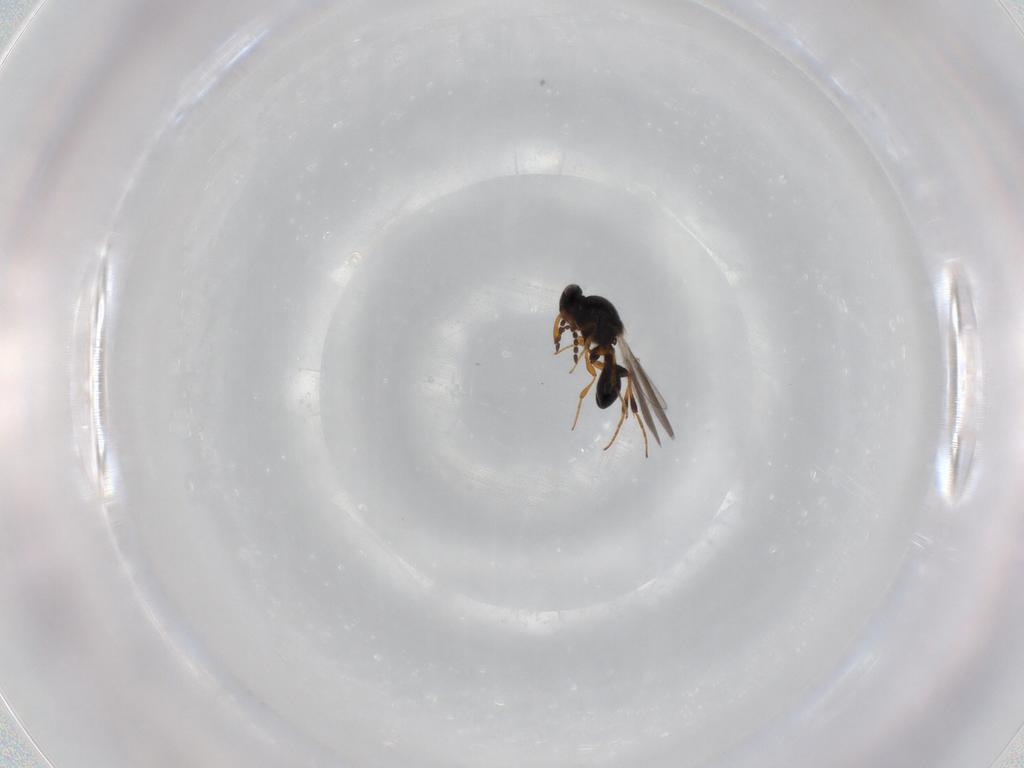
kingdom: Animalia
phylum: Arthropoda
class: Insecta
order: Hymenoptera
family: Platygastridae
